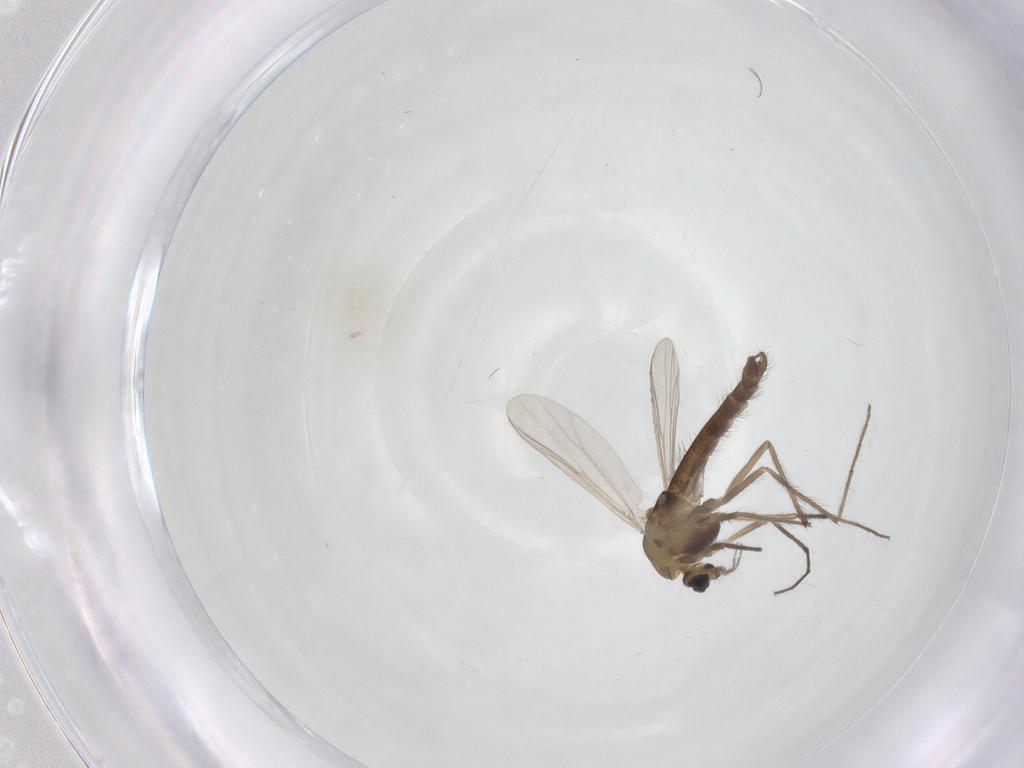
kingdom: Animalia
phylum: Arthropoda
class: Insecta
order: Diptera
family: Chironomidae
